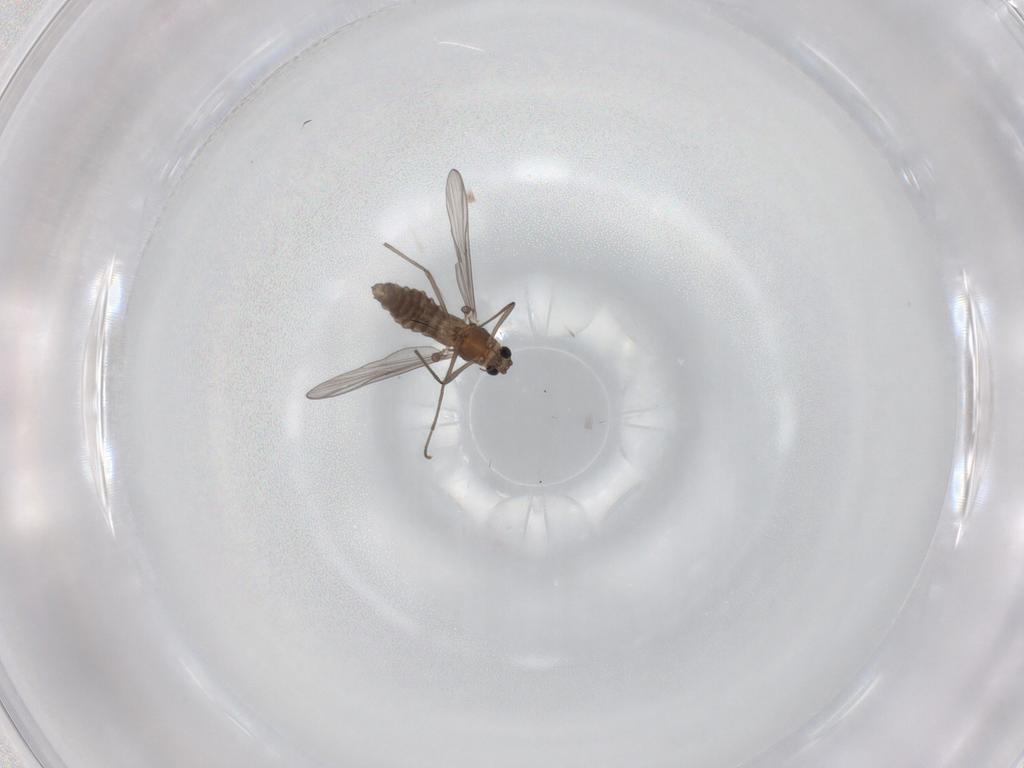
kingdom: Animalia
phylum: Arthropoda
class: Insecta
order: Diptera
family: Chironomidae
